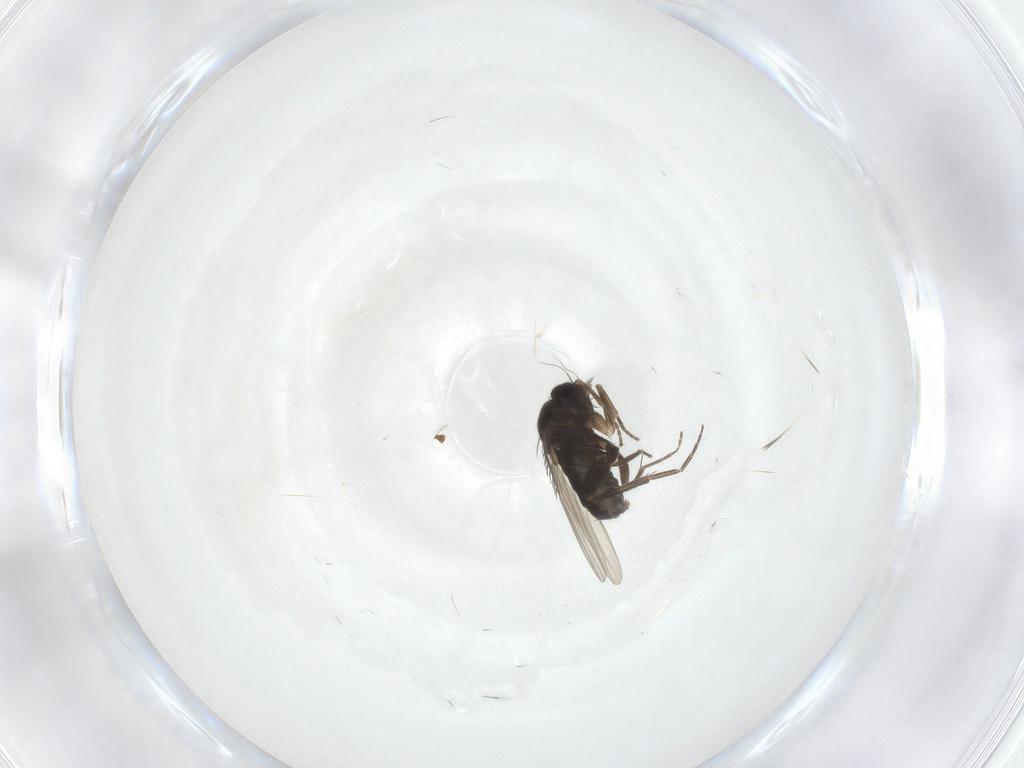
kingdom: Animalia
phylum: Arthropoda
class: Insecta
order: Diptera
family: Phoridae
